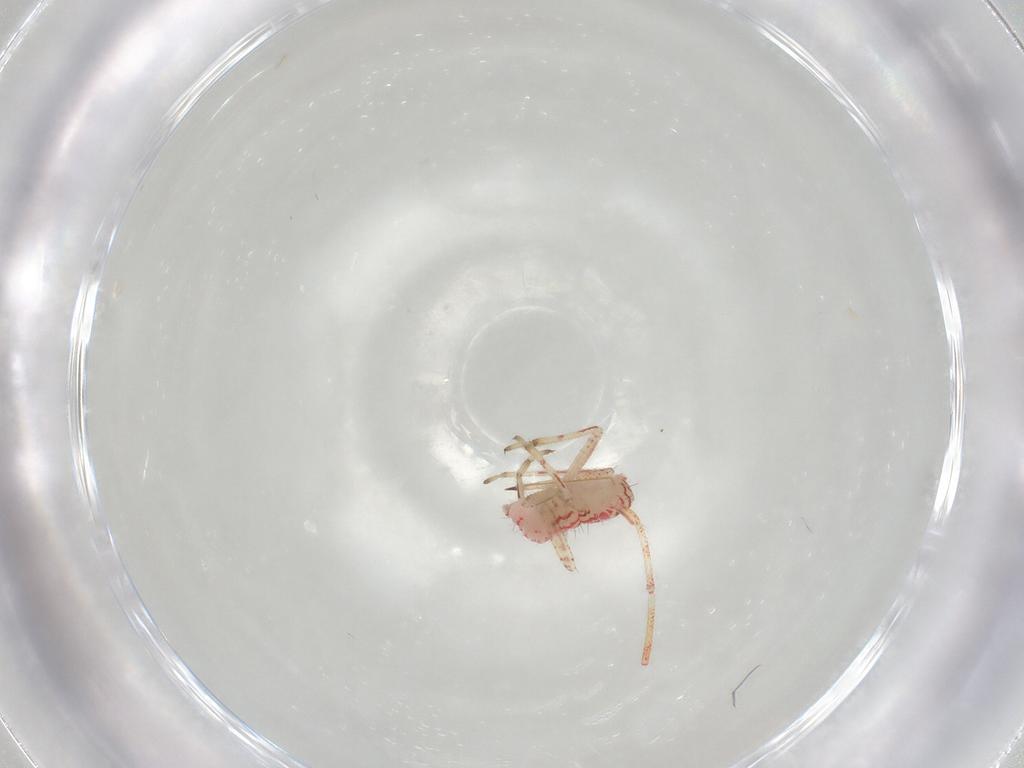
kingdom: Animalia
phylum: Arthropoda
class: Insecta
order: Hemiptera
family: Miridae
